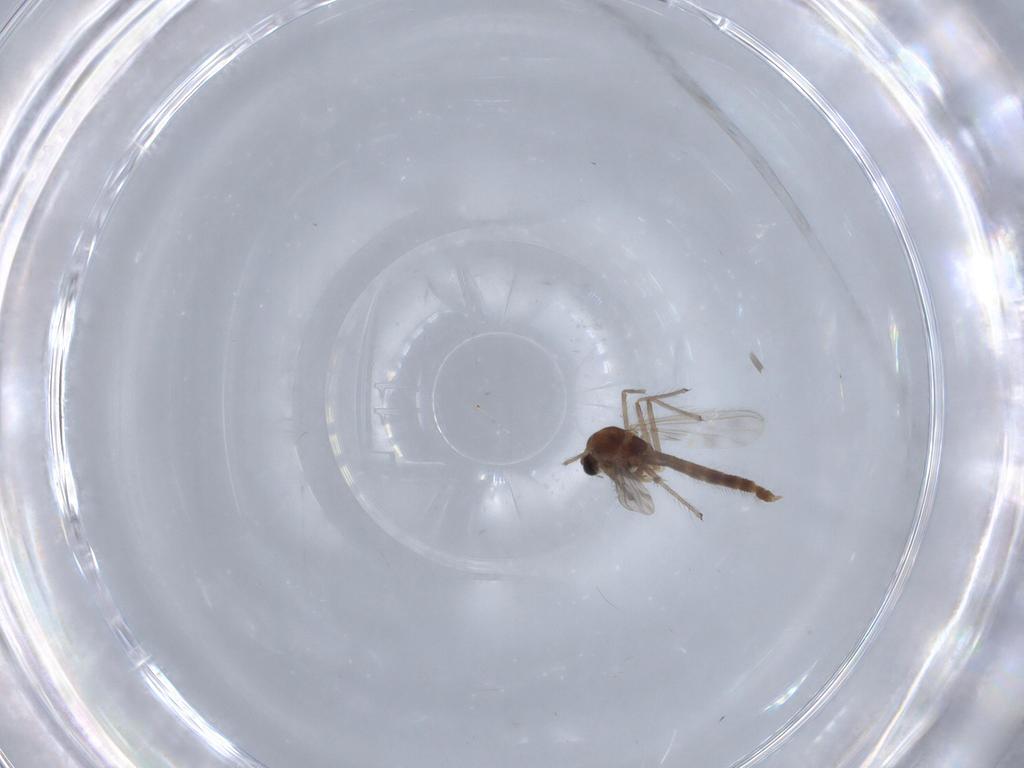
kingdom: Animalia
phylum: Arthropoda
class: Insecta
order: Diptera
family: Chironomidae
